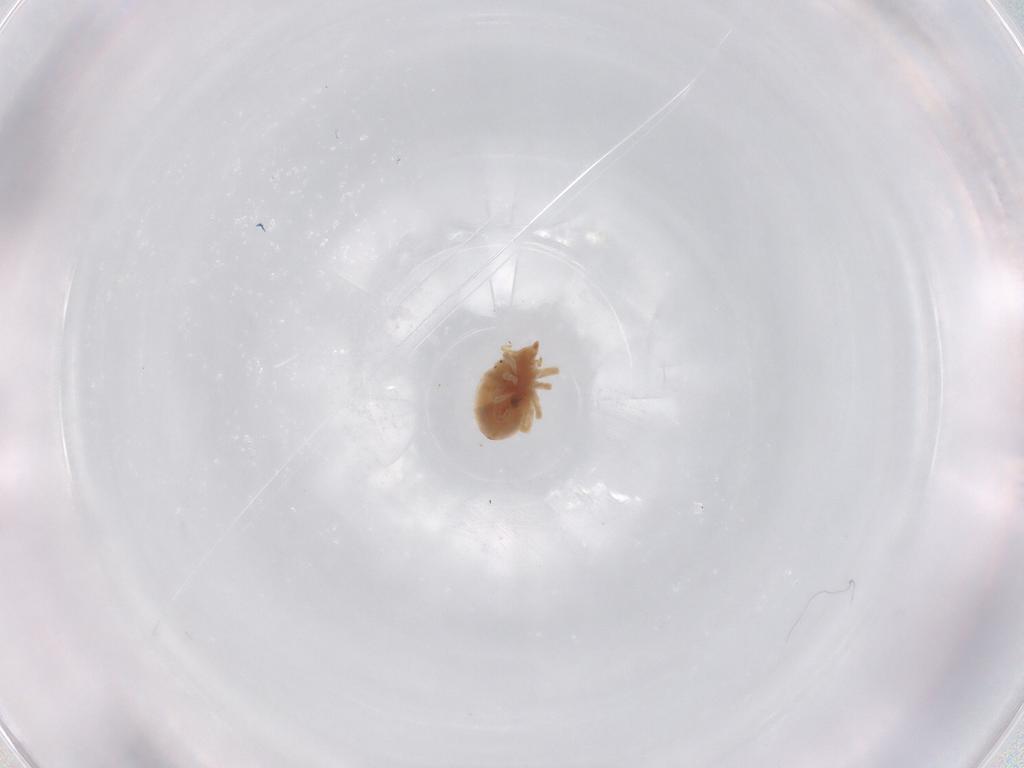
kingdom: Animalia
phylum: Arthropoda
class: Arachnida
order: Trombidiformes
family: Bdellidae
